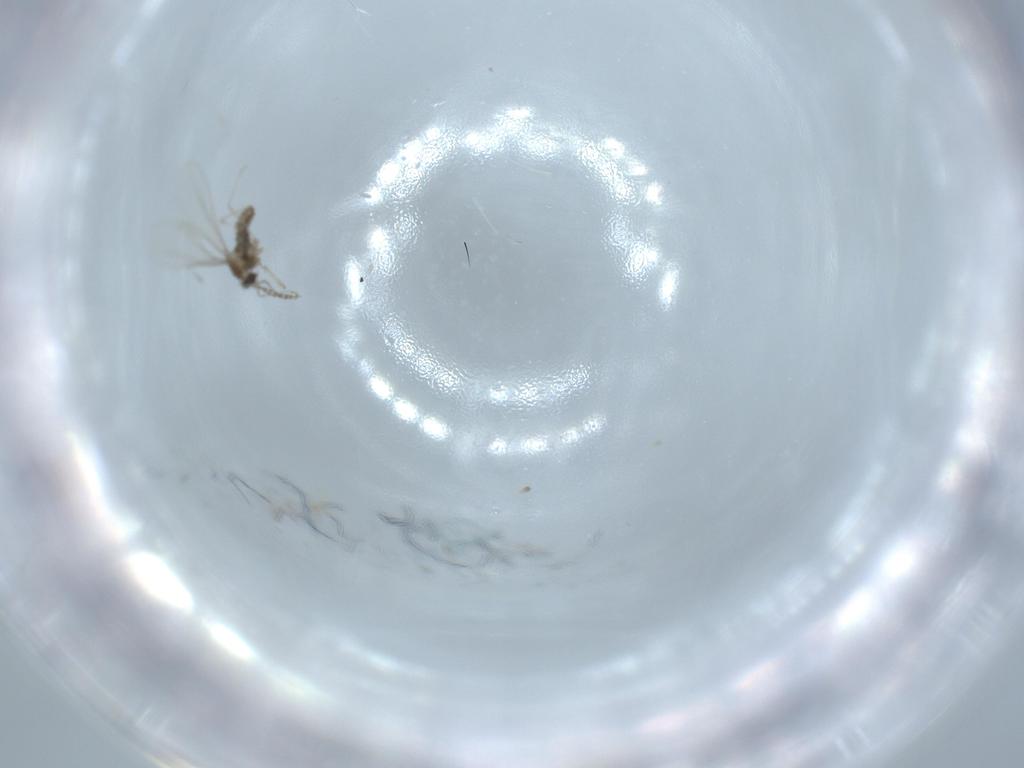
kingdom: Animalia
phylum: Arthropoda
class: Insecta
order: Diptera
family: Cecidomyiidae
